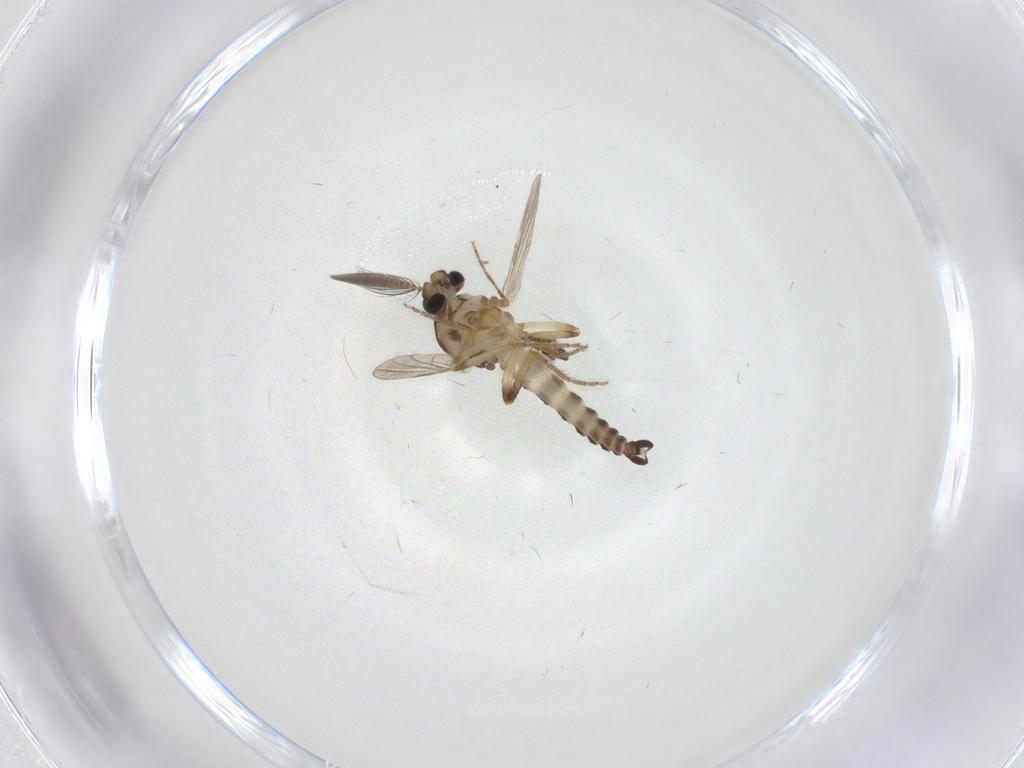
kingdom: Animalia
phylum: Arthropoda
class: Insecta
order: Diptera
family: Ceratopogonidae
